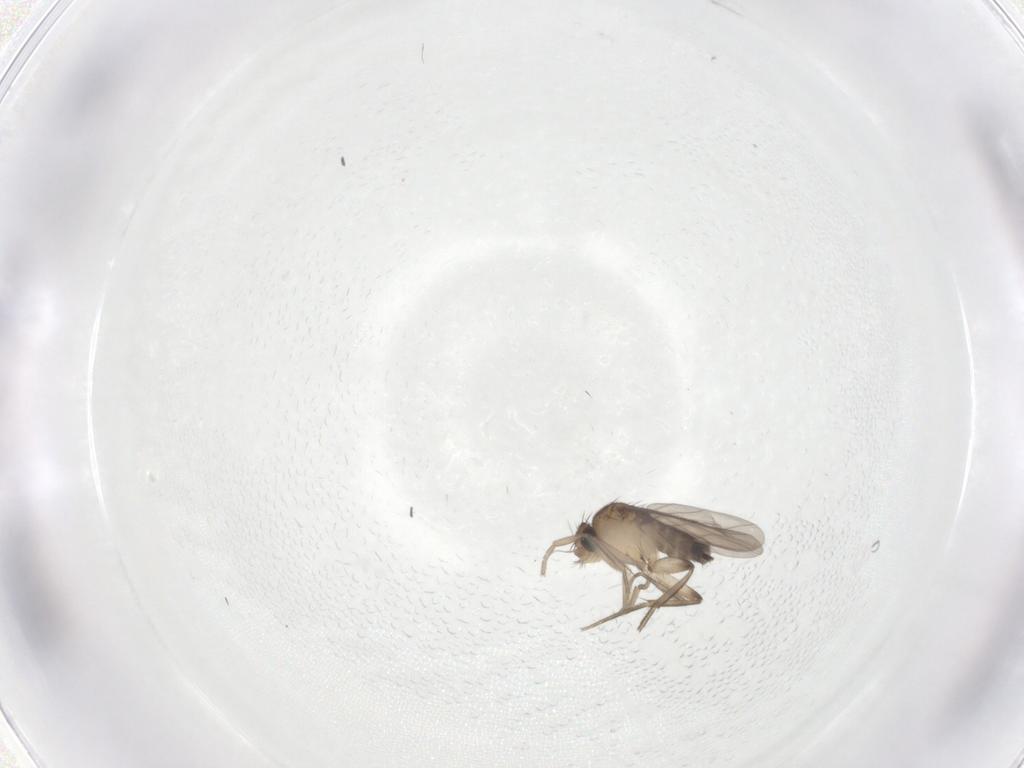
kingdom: Animalia
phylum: Arthropoda
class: Insecta
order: Diptera
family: Phoridae
